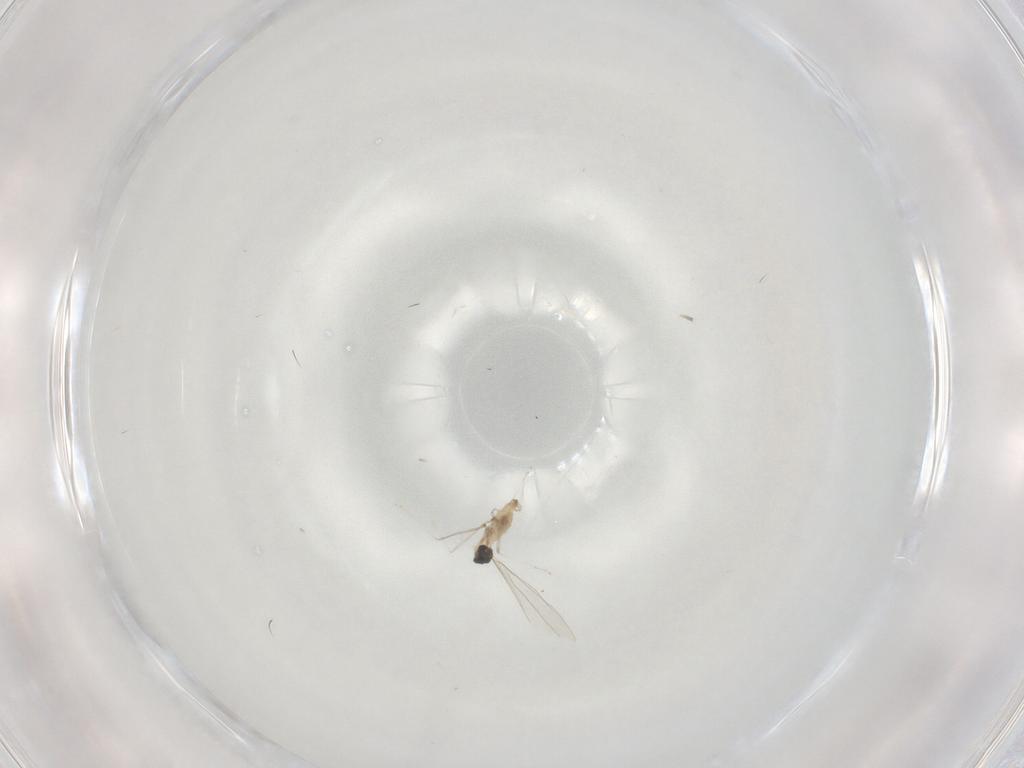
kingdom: Animalia
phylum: Arthropoda
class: Insecta
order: Diptera
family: Cecidomyiidae
